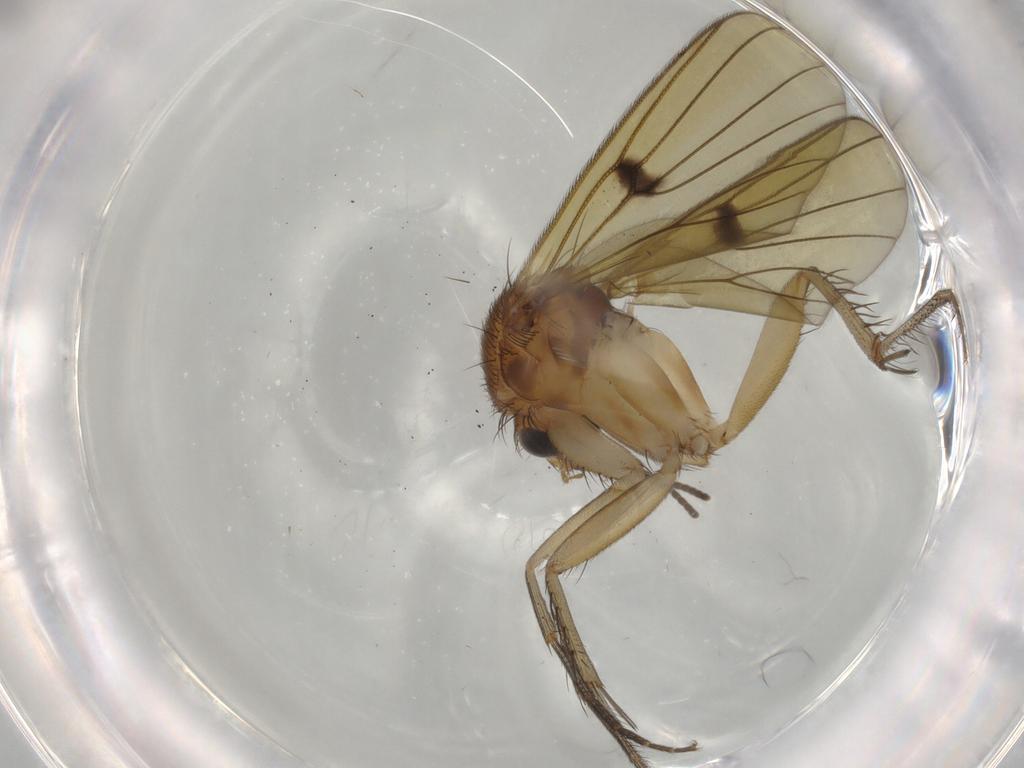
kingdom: Animalia
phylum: Arthropoda
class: Insecta
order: Diptera
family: Sciaridae
